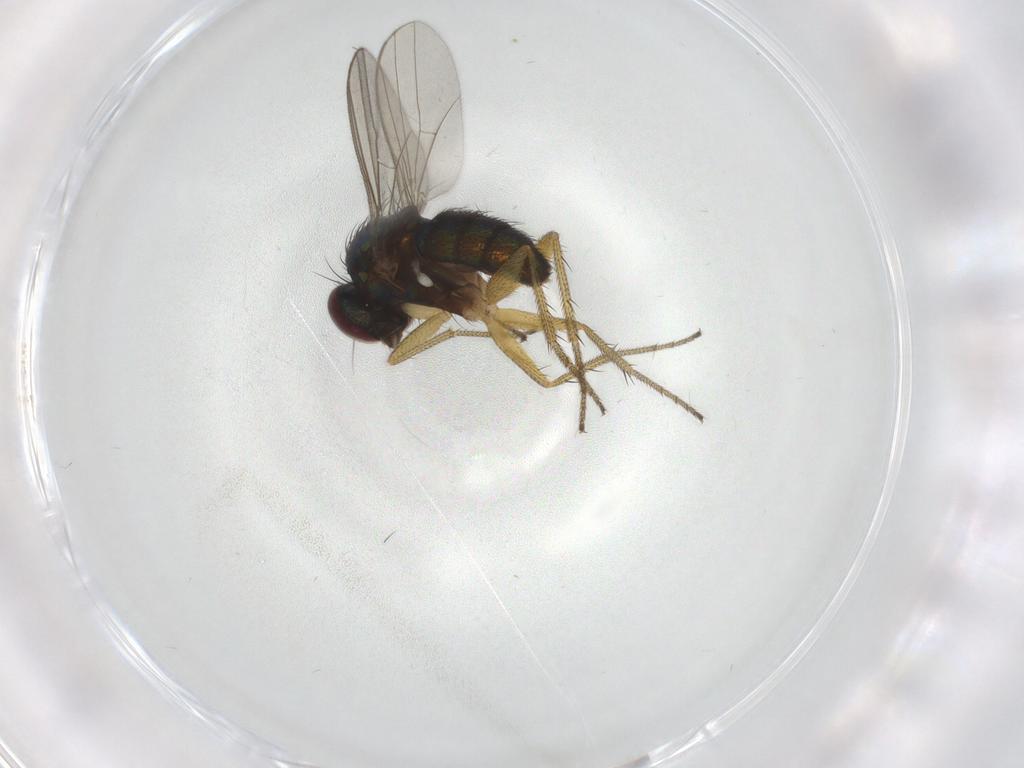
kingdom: Animalia
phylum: Arthropoda
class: Insecta
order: Diptera
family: Dolichopodidae
